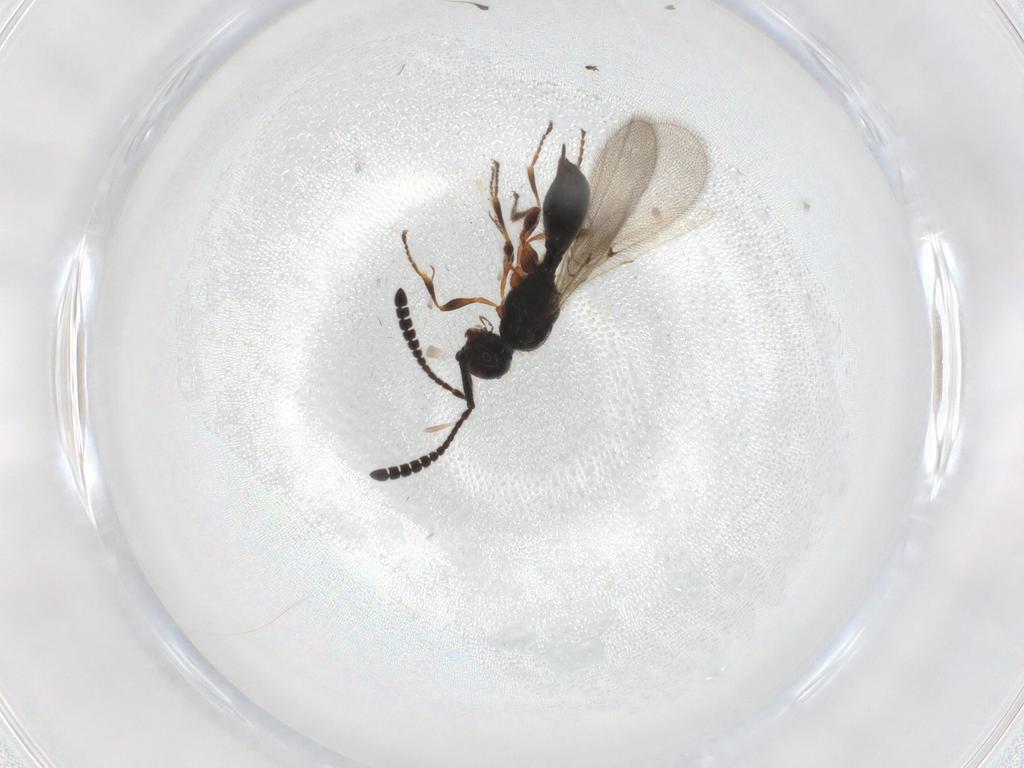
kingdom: Animalia
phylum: Arthropoda
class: Insecta
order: Hymenoptera
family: Diapriidae
